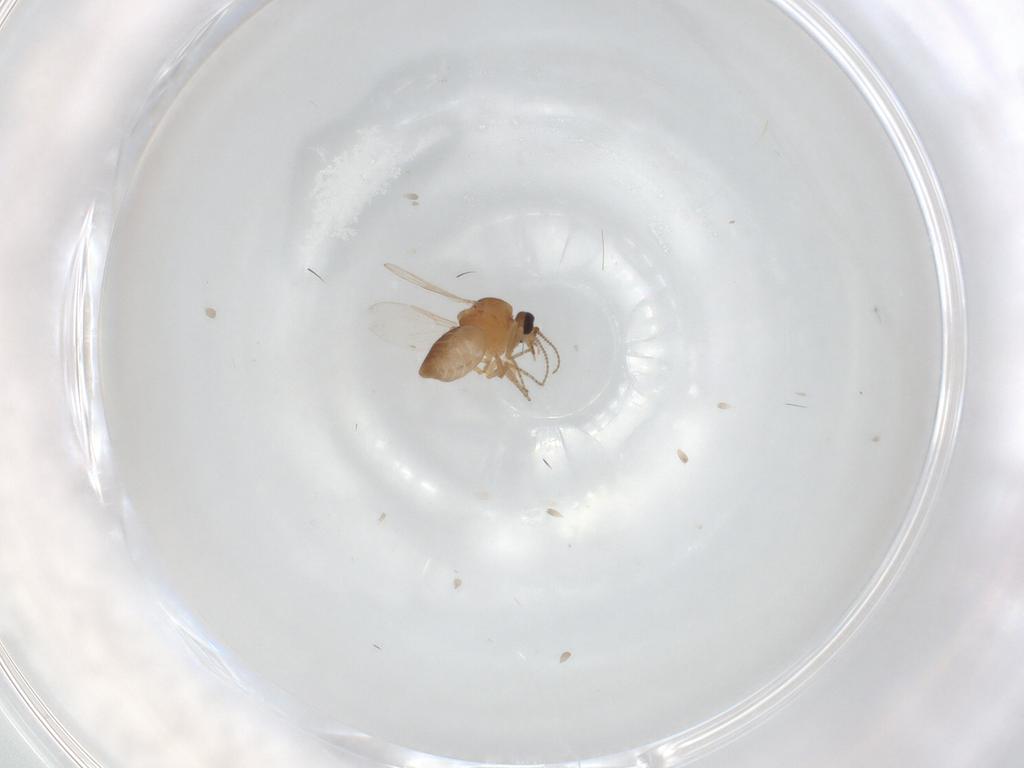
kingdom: Animalia
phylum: Arthropoda
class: Insecta
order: Diptera
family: Ceratopogonidae
